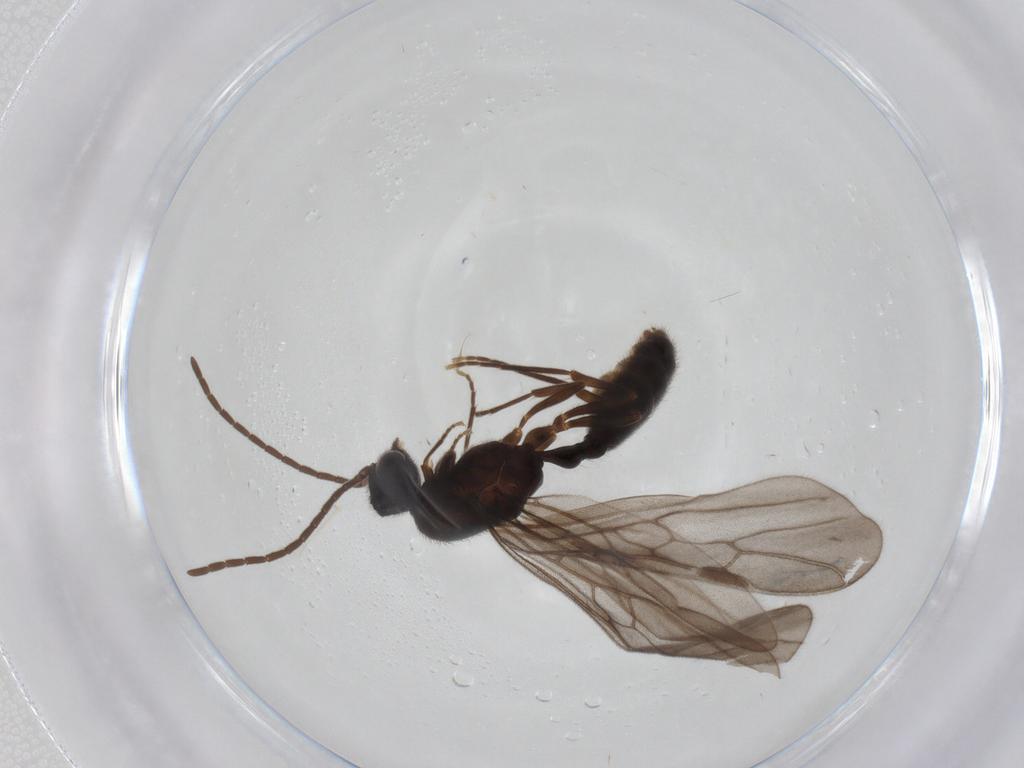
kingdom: Animalia
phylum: Arthropoda
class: Insecta
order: Hymenoptera
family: Formicidae
